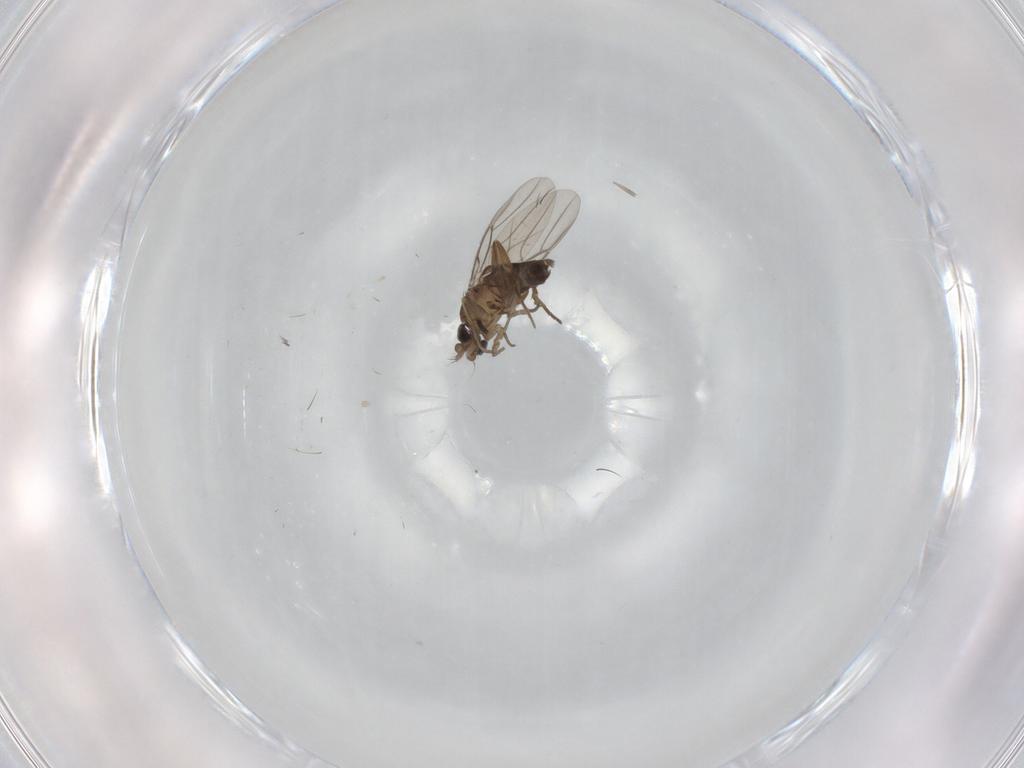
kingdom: Animalia
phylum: Arthropoda
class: Insecta
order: Diptera
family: Phoridae
